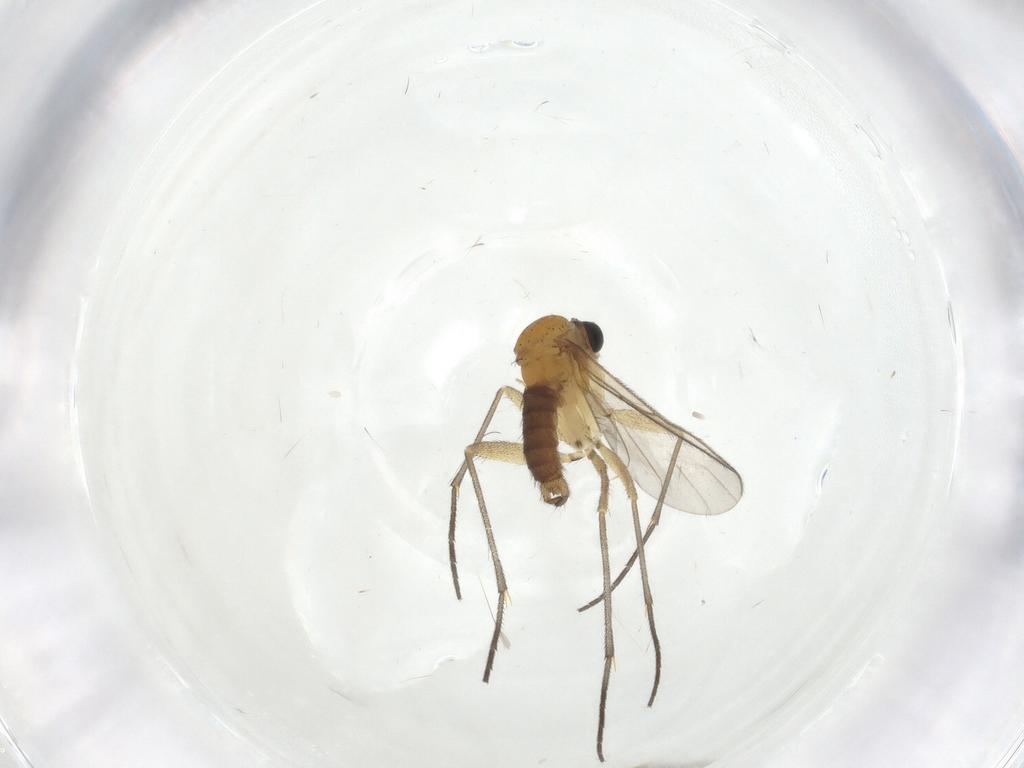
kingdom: Animalia
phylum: Arthropoda
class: Insecta
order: Diptera
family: Sciaridae
